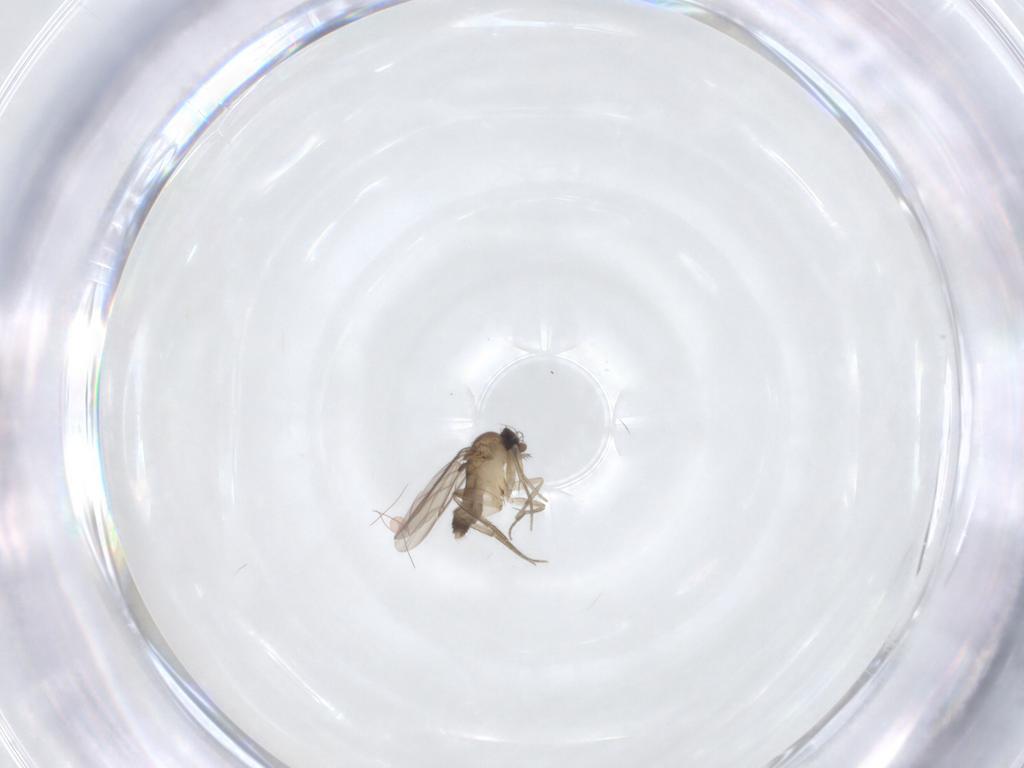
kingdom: Animalia
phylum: Arthropoda
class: Insecta
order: Diptera
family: Phoridae
